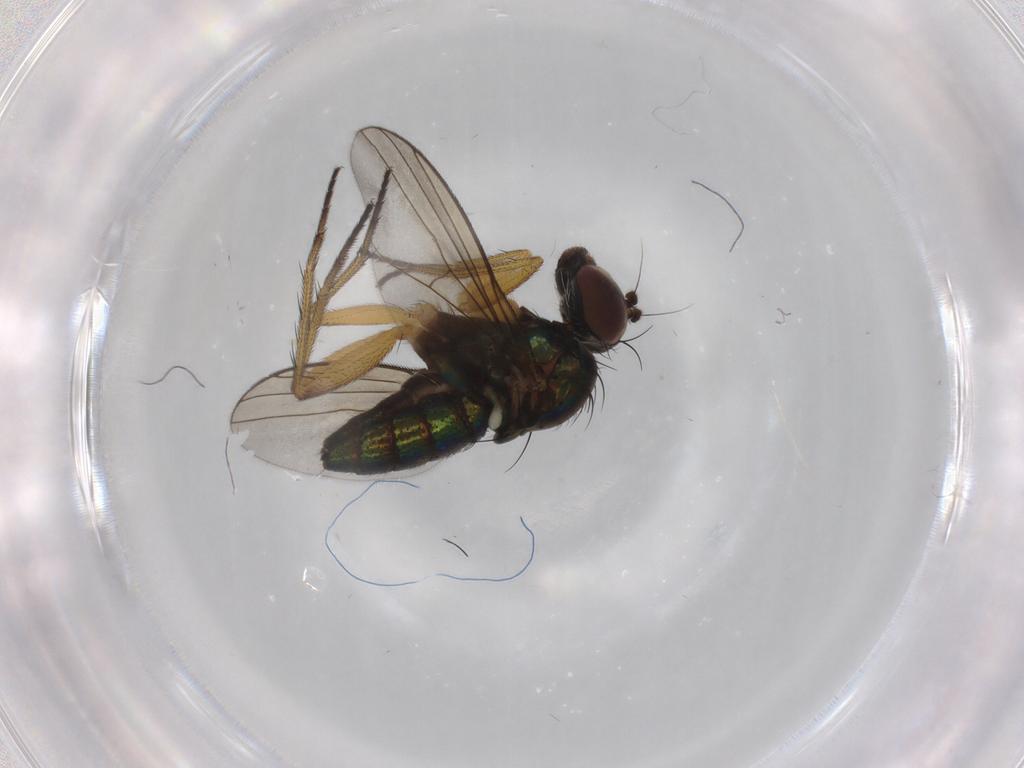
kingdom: Animalia
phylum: Arthropoda
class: Insecta
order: Diptera
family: Dolichopodidae
